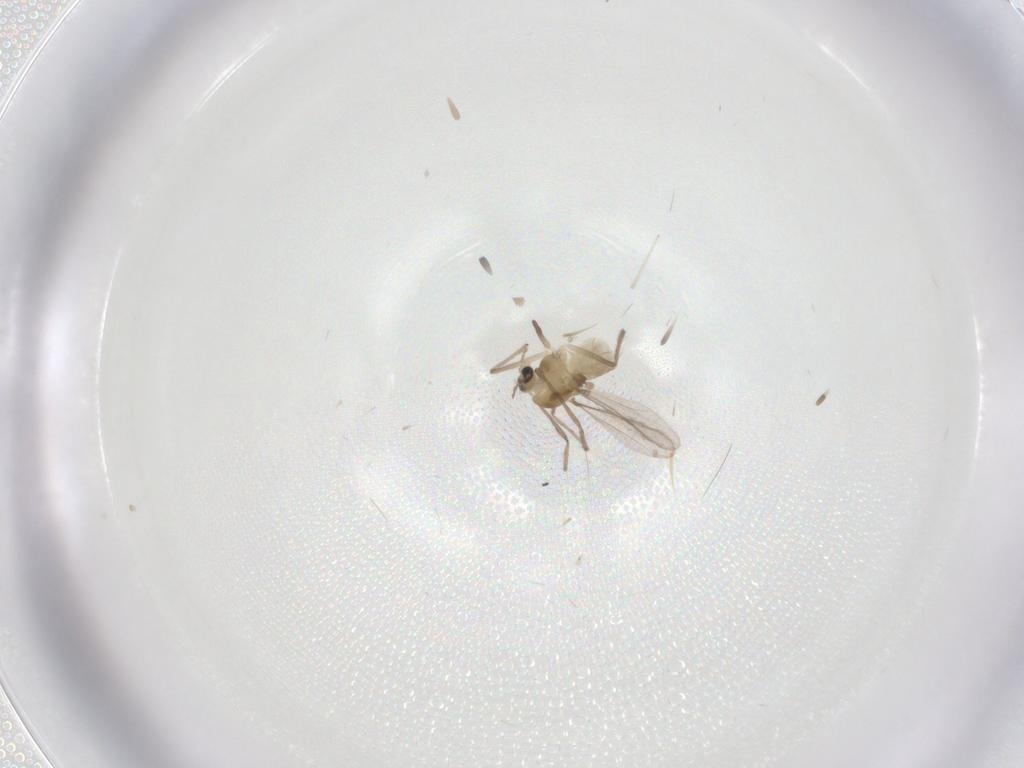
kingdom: Animalia
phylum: Arthropoda
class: Insecta
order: Diptera
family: Chironomidae
